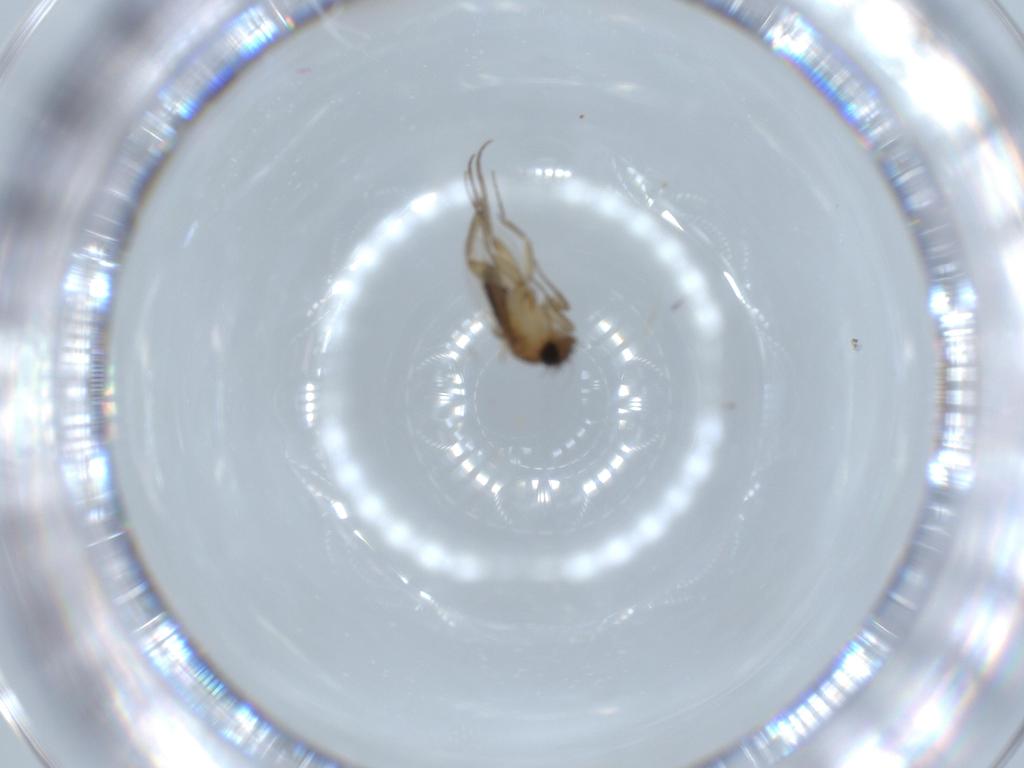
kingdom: Animalia
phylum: Arthropoda
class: Insecta
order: Diptera
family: Phoridae
